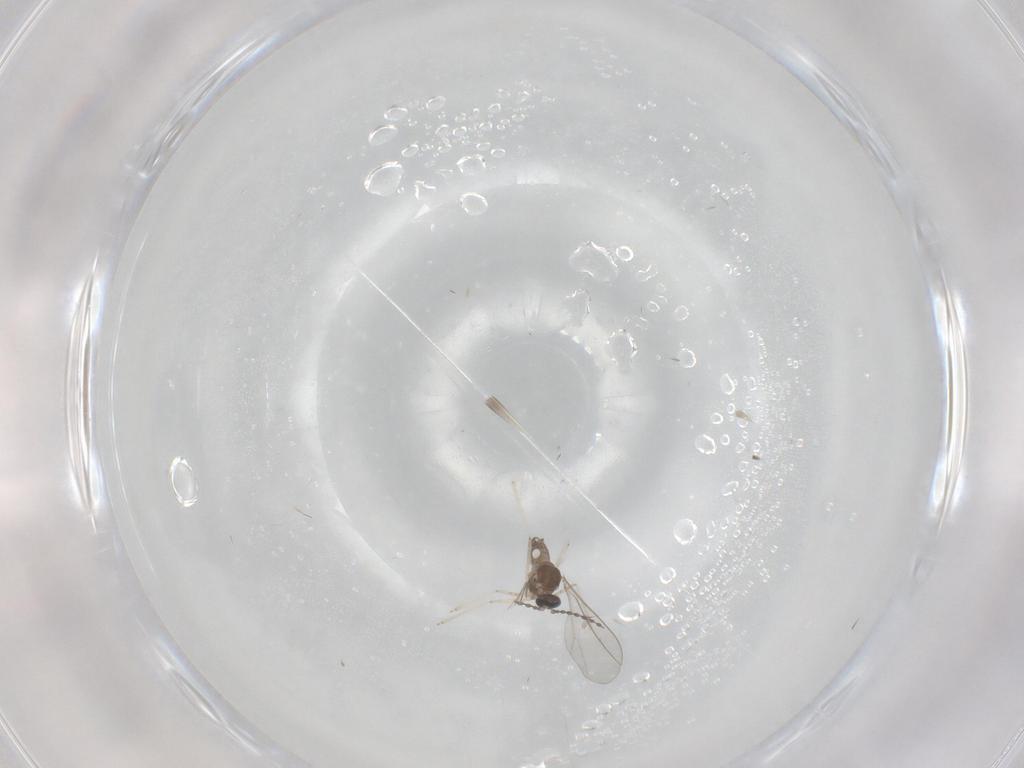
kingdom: Animalia
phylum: Arthropoda
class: Insecta
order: Diptera
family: Cecidomyiidae
